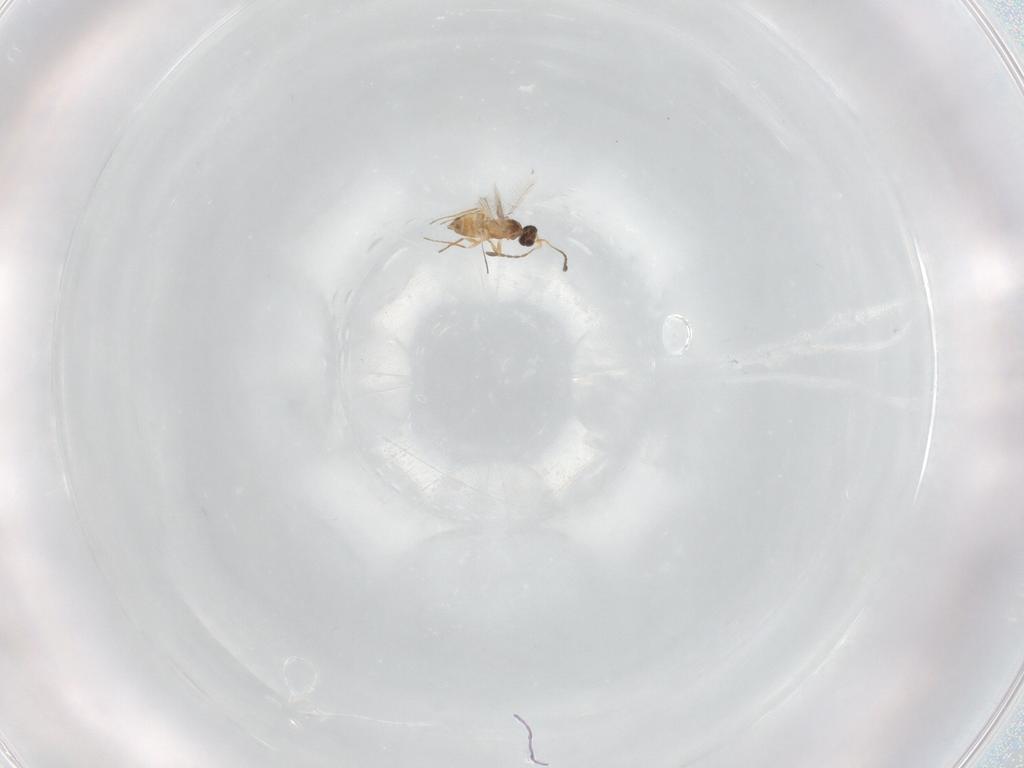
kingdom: Animalia
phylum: Arthropoda
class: Insecta
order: Hymenoptera
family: Mymaridae
